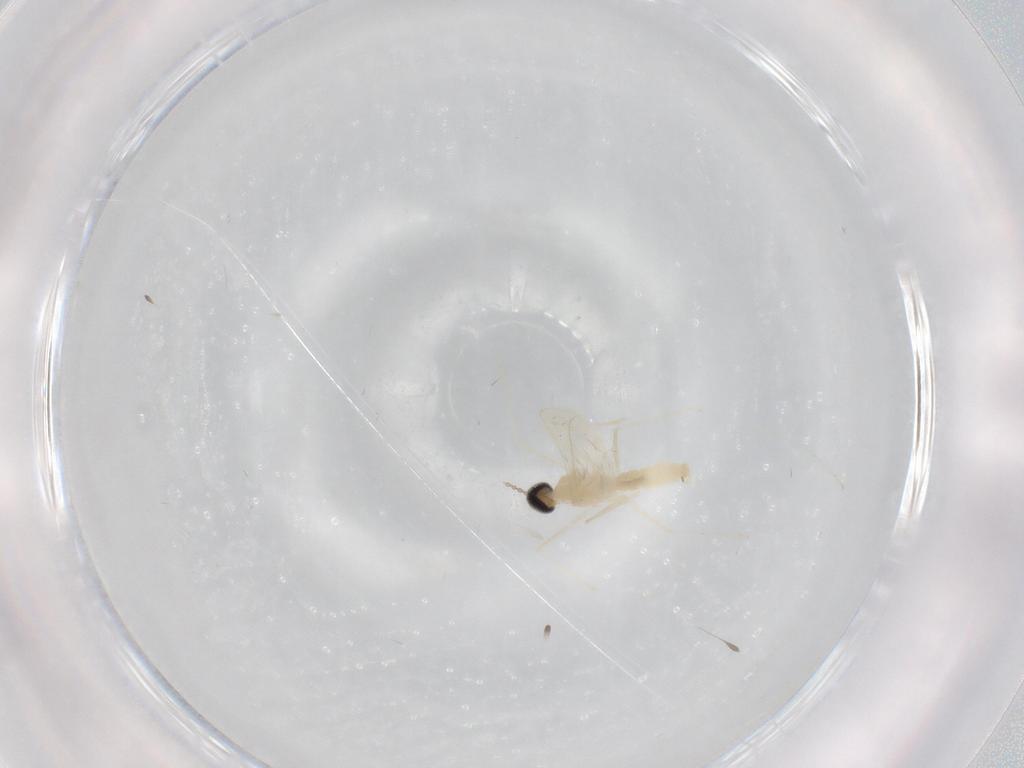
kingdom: Animalia
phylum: Arthropoda
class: Insecta
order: Diptera
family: Cecidomyiidae
